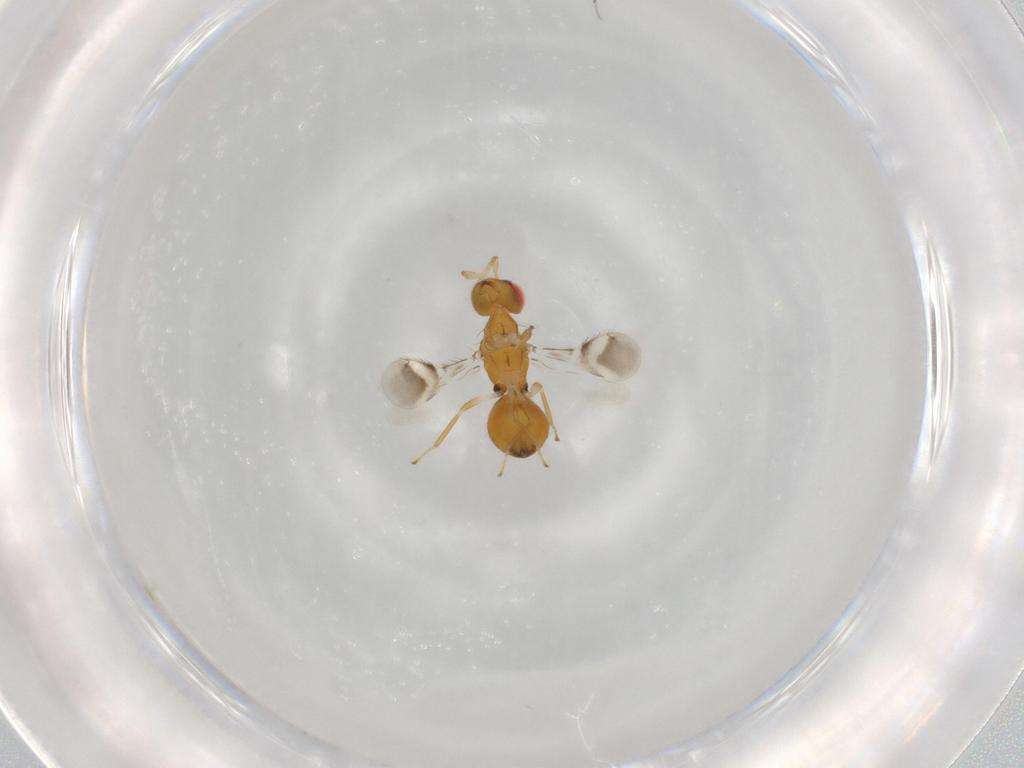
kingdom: Animalia
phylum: Arthropoda
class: Insecta
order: Hymenoptera
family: Eulophidae
